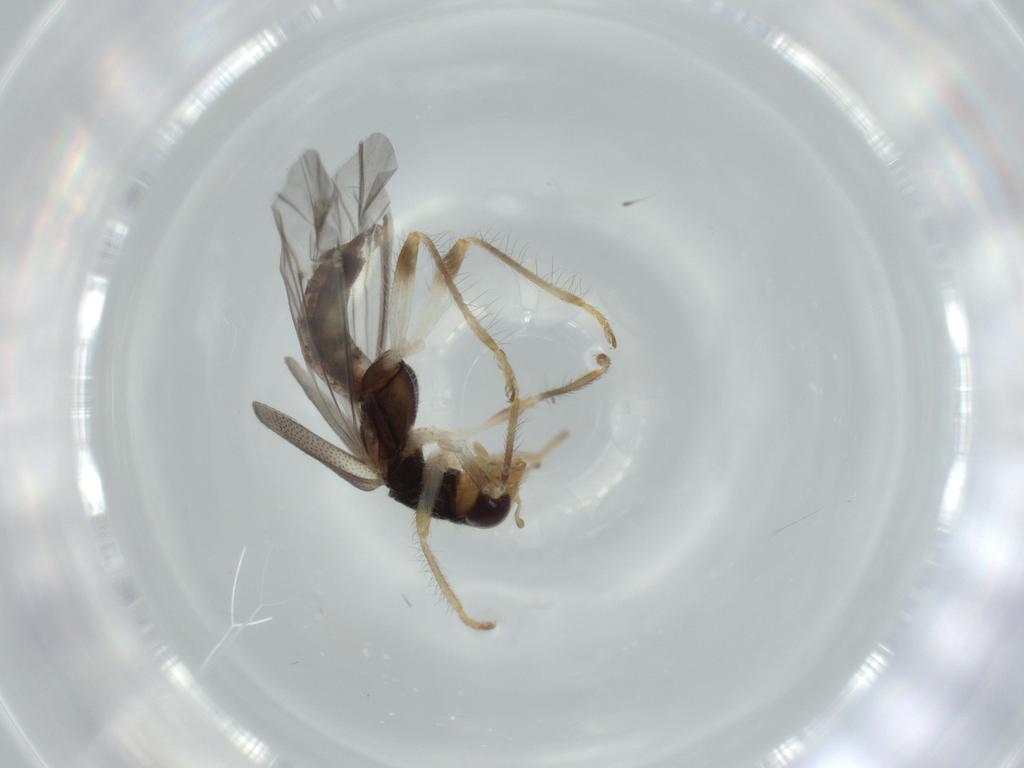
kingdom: Animalia
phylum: Arthropoda
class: Insecta
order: Coleoptera
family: Cleridae
